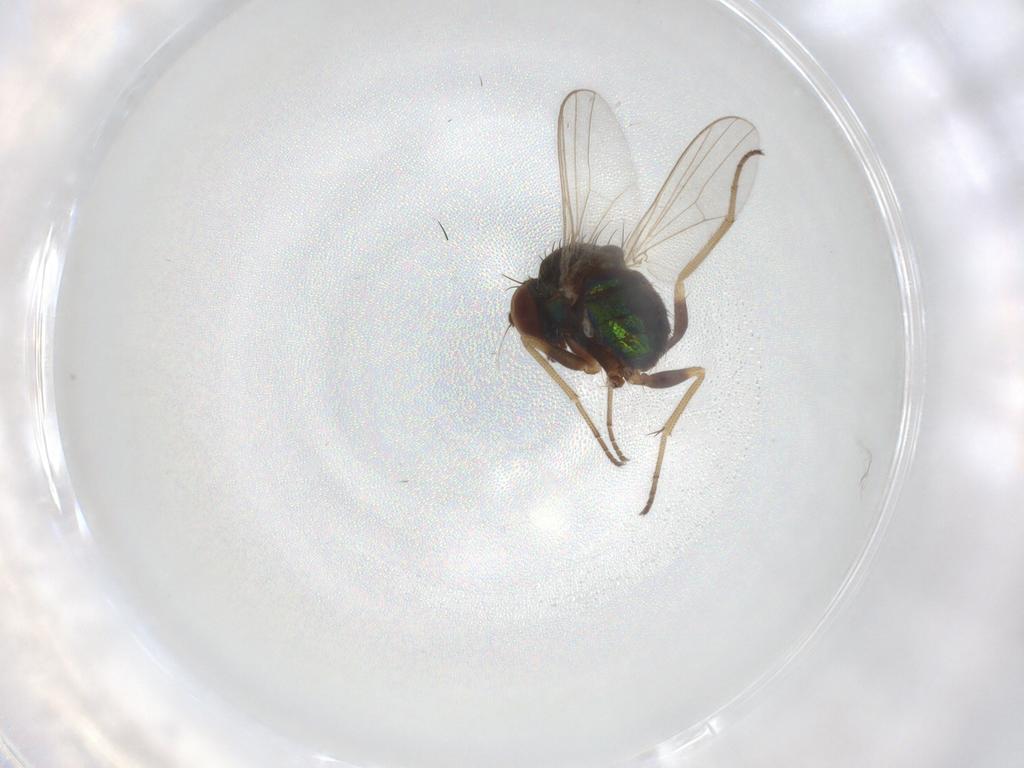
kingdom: Animalia
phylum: Arthropoda
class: Insecta
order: Diptera
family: Dolichopodidae
